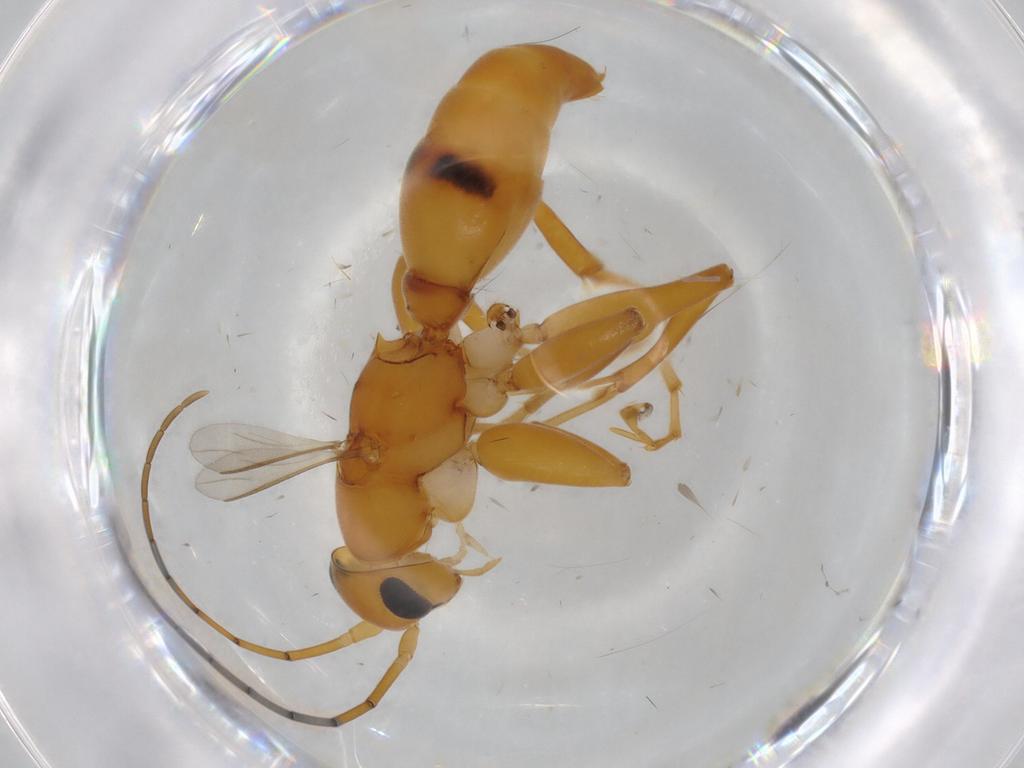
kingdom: Animalia
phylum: Arthropoda
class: Insecta
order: Hymenoptera
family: Rhopalosomatidae
